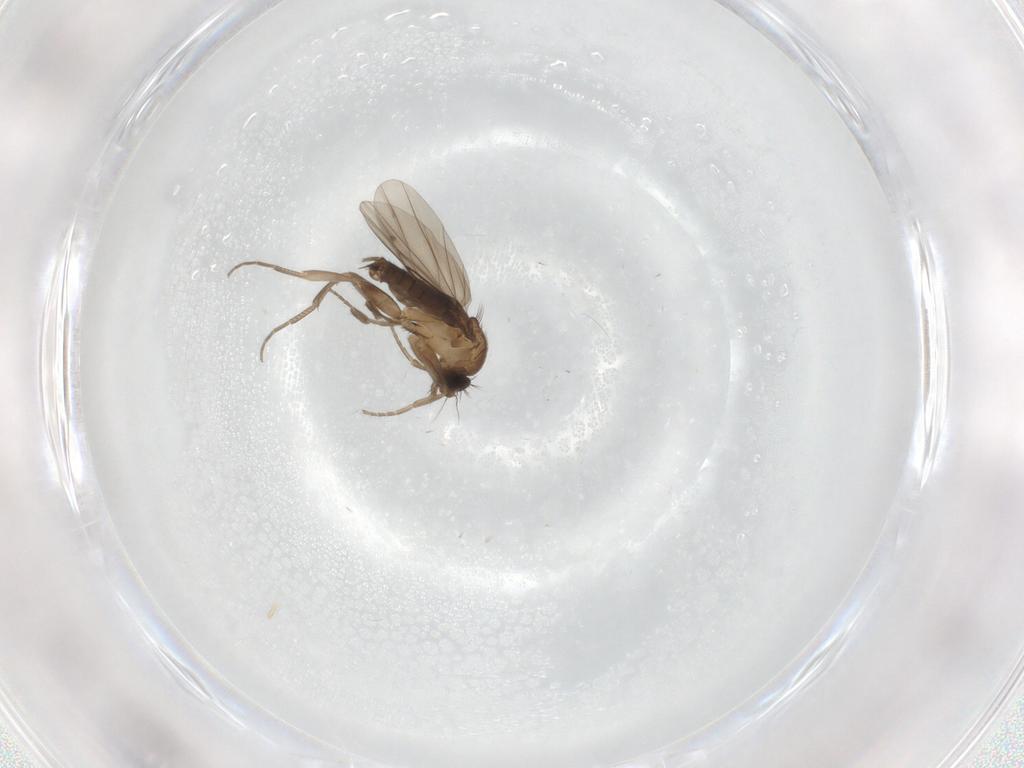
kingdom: Animalia
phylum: Arthropoda
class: Insecta
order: Diptera
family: Phoridae
